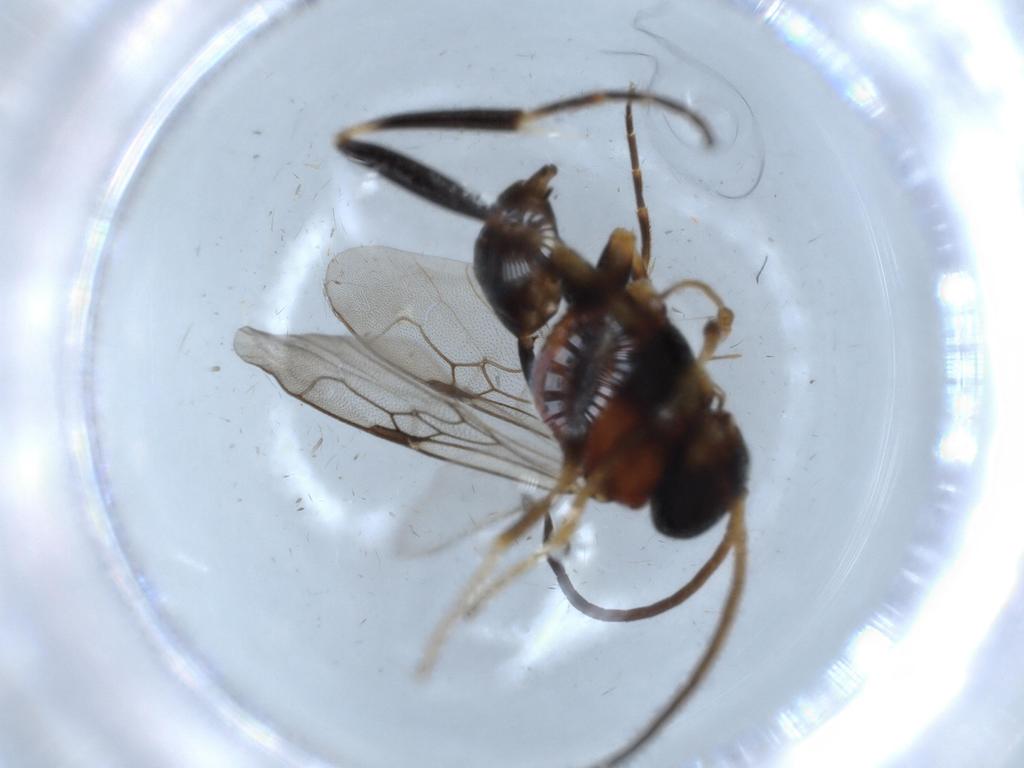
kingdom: Animalia
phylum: Arthropoda
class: Insecta
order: Hymenoptera
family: Evaniidae
